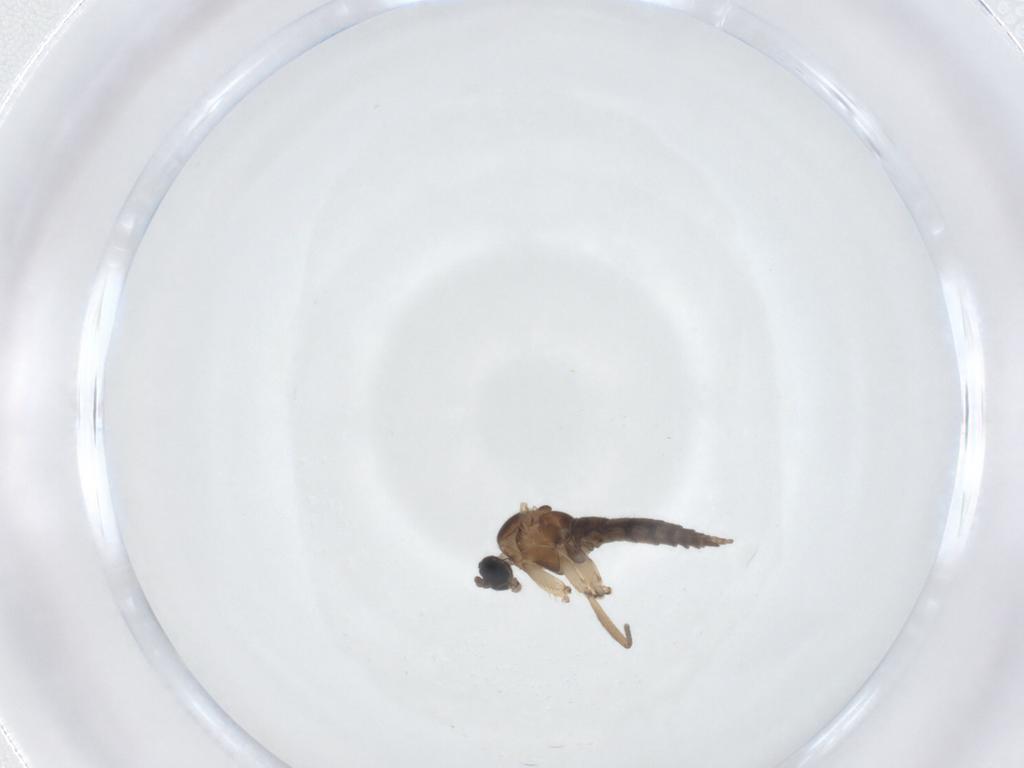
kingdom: Animalia
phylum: Arthropoda
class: Insecta
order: Diptera
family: Sciaridae
